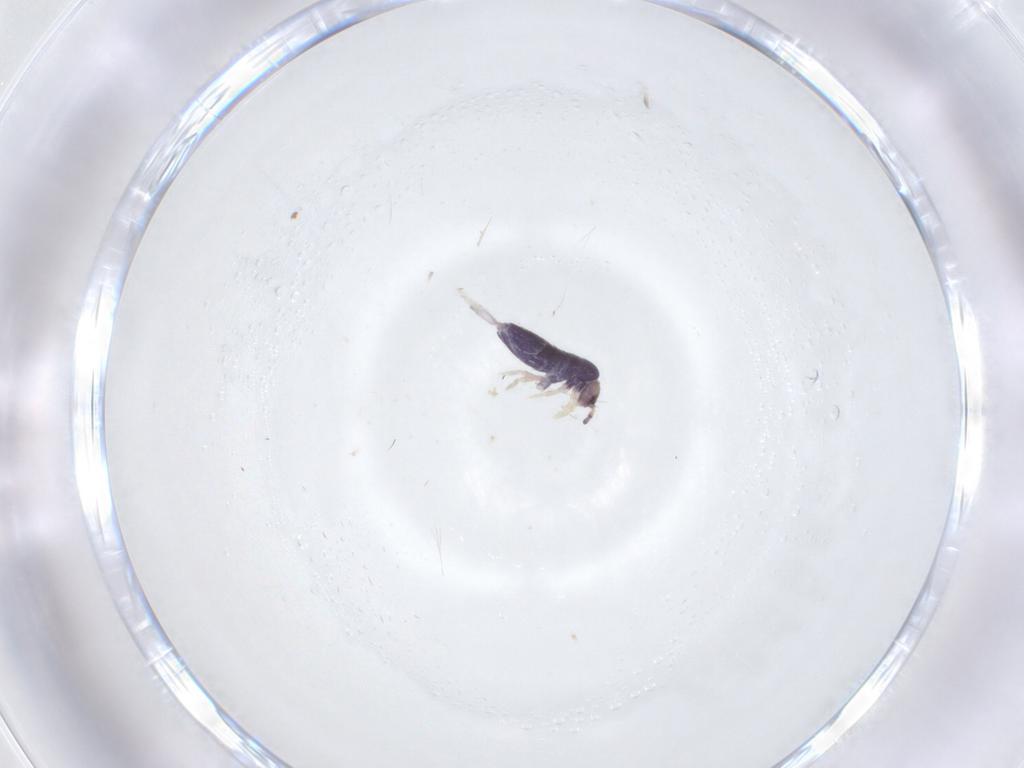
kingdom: Animalia
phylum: Arthropoda
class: Collembola
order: Entomobryomorpha
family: Entomobryidae
